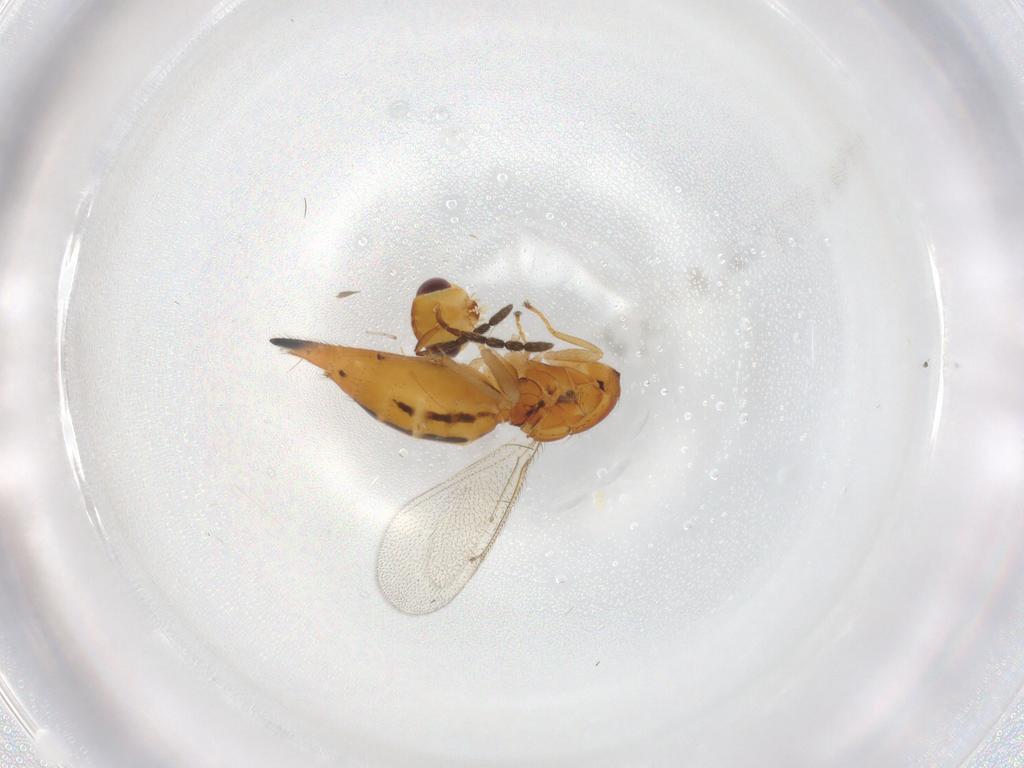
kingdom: Animalia
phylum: Arthropoda
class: Insecta
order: Hymenoptera
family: Eulophidae
